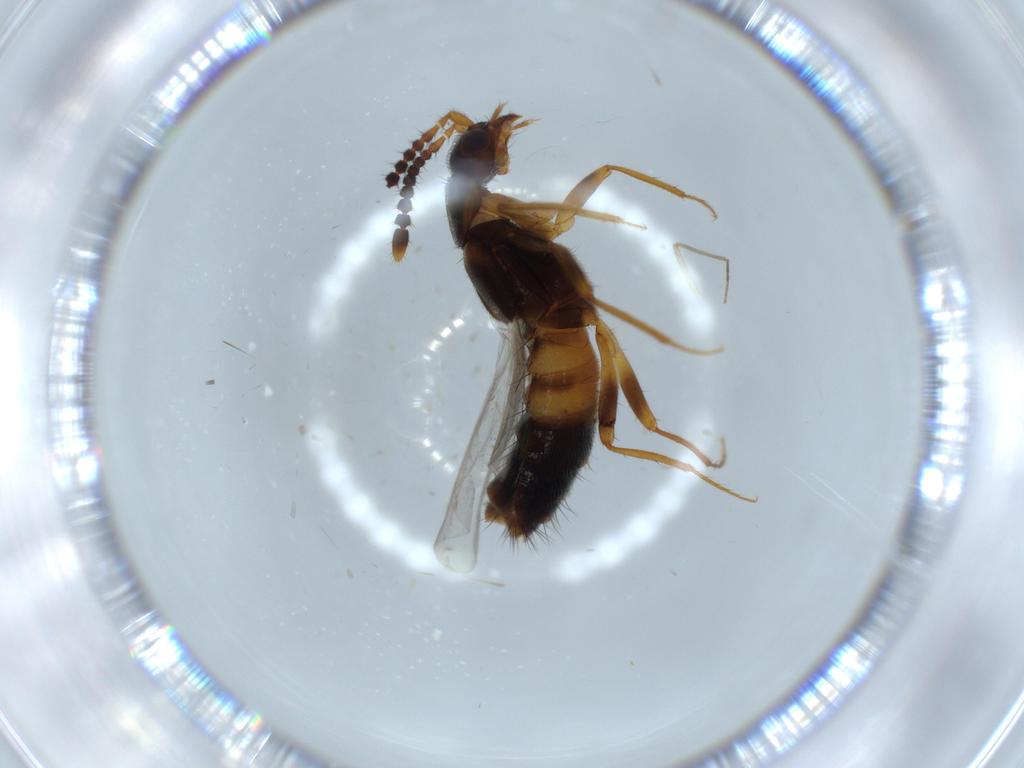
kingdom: Animalia
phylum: Arthropoda
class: Insecta
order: Coleoptera
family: Staphylinidae
